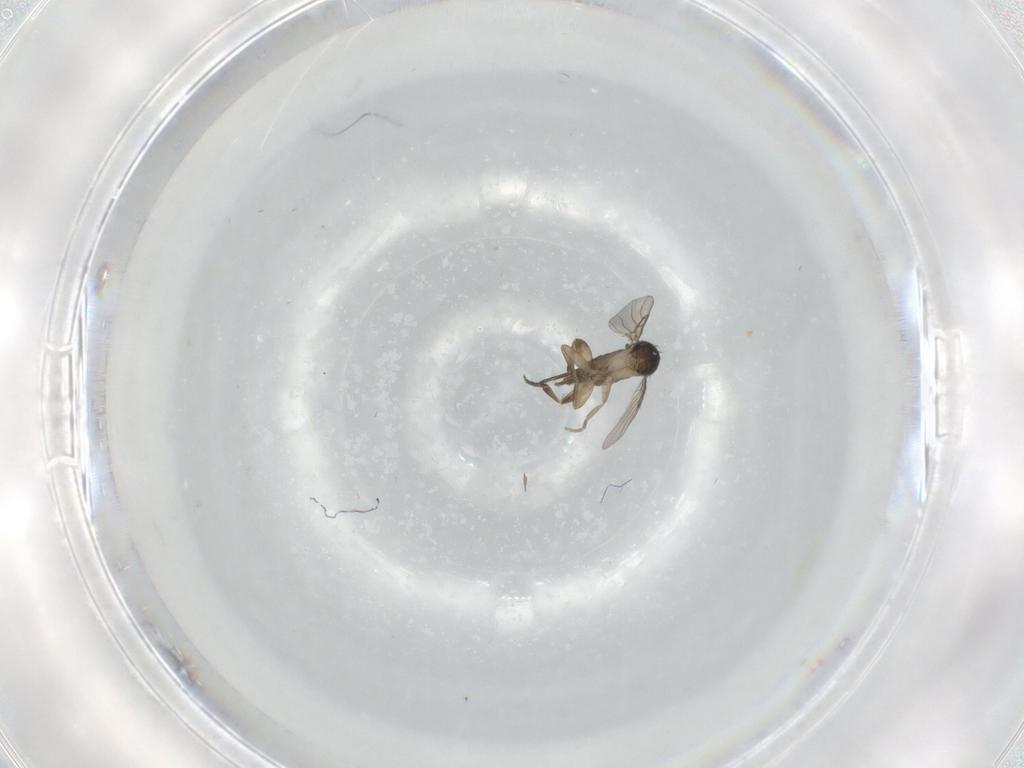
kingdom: Animalia
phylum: Arthropoda
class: Insecta
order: Diptera
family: Phoridae
